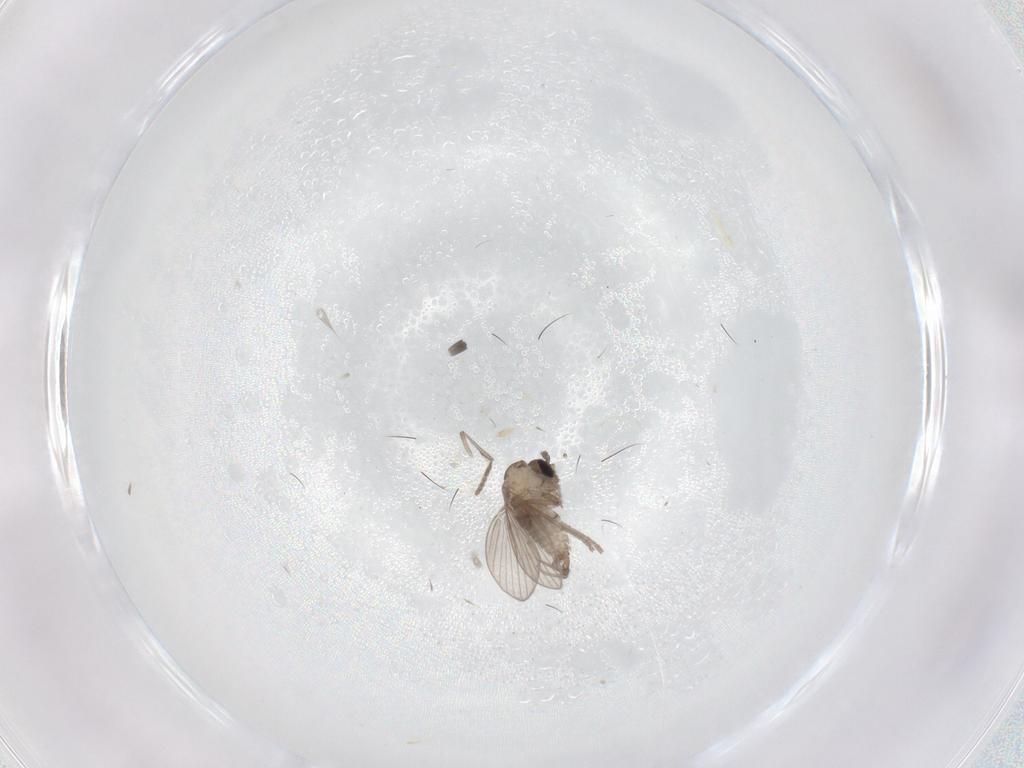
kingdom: Animalia
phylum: Arthropoda
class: Insecta
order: Diptera
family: Psychodidae
